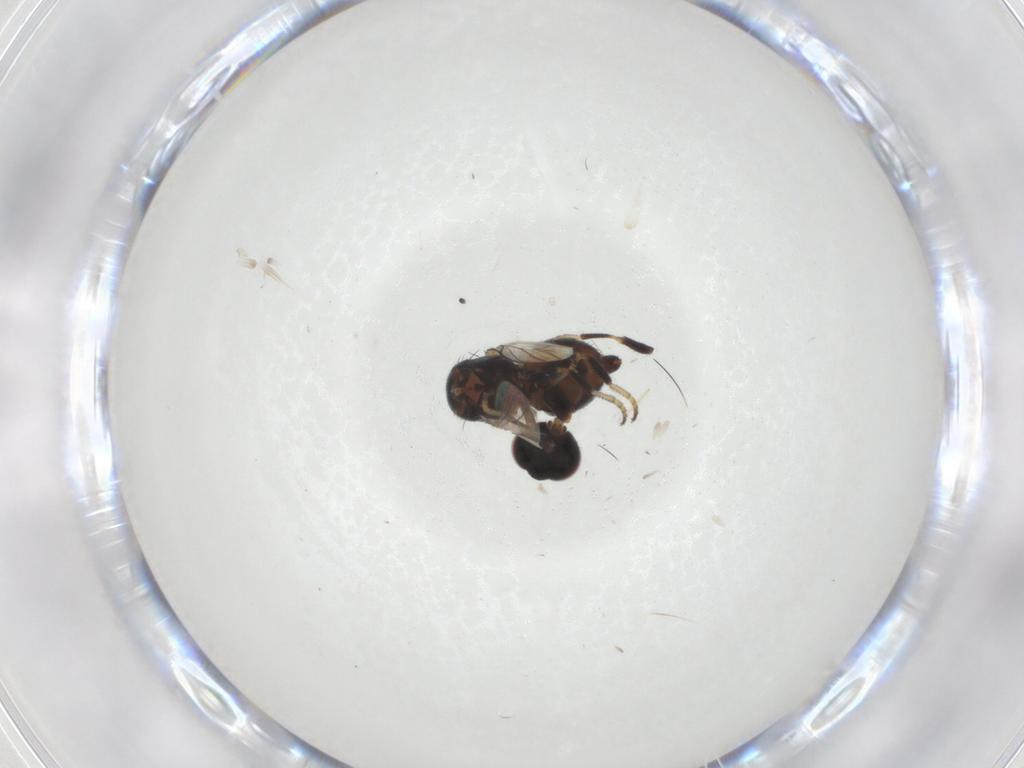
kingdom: Animalia
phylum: Arthropoda
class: Insecta
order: Diptera
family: Chamaemyiidae
